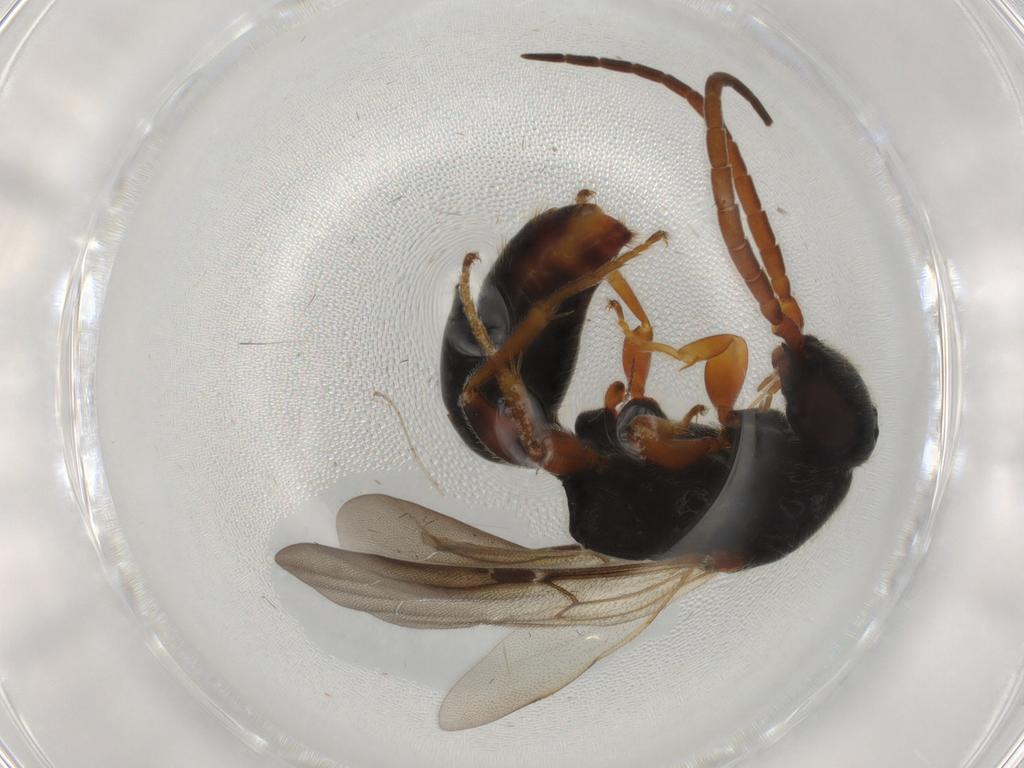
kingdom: Animalia
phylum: Arthropoda
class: Insecta
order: Hymenoptera
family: Bethylidae
